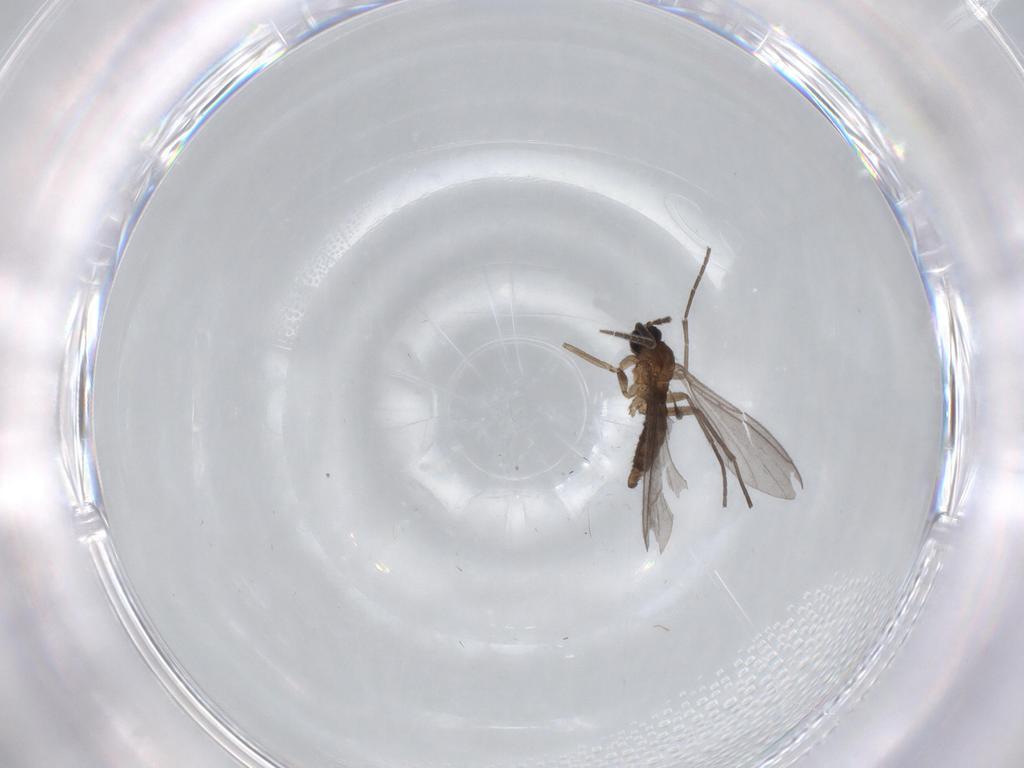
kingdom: Animalia
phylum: Arthropoda
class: Insecta
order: Diptera
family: Sciaridae
